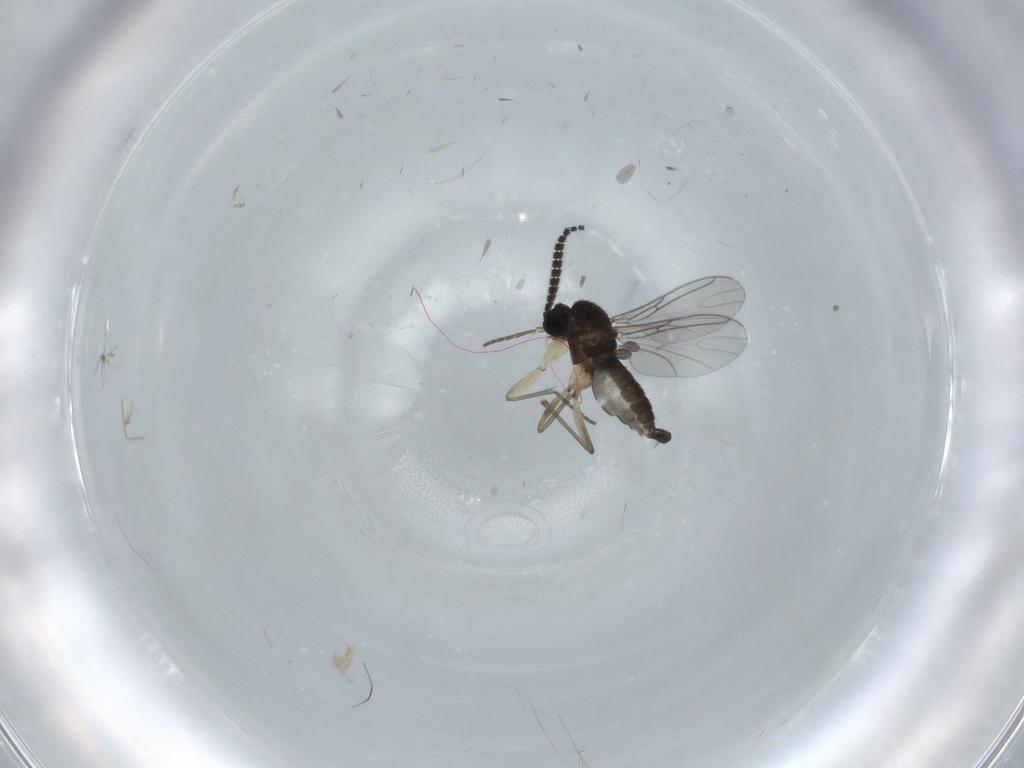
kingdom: Animalia
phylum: Arthropoda
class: Insecta
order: Diptera
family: Sciaridae
